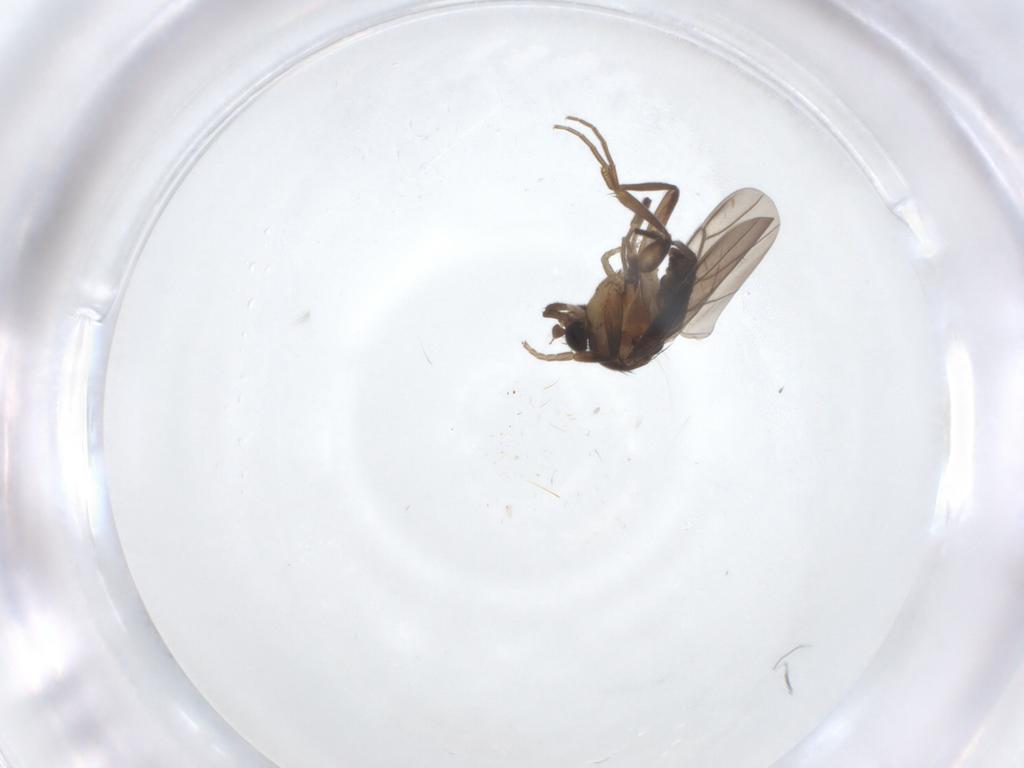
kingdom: Animalia
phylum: Arthropoda
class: Insecta
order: Diptera
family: Phoridae
